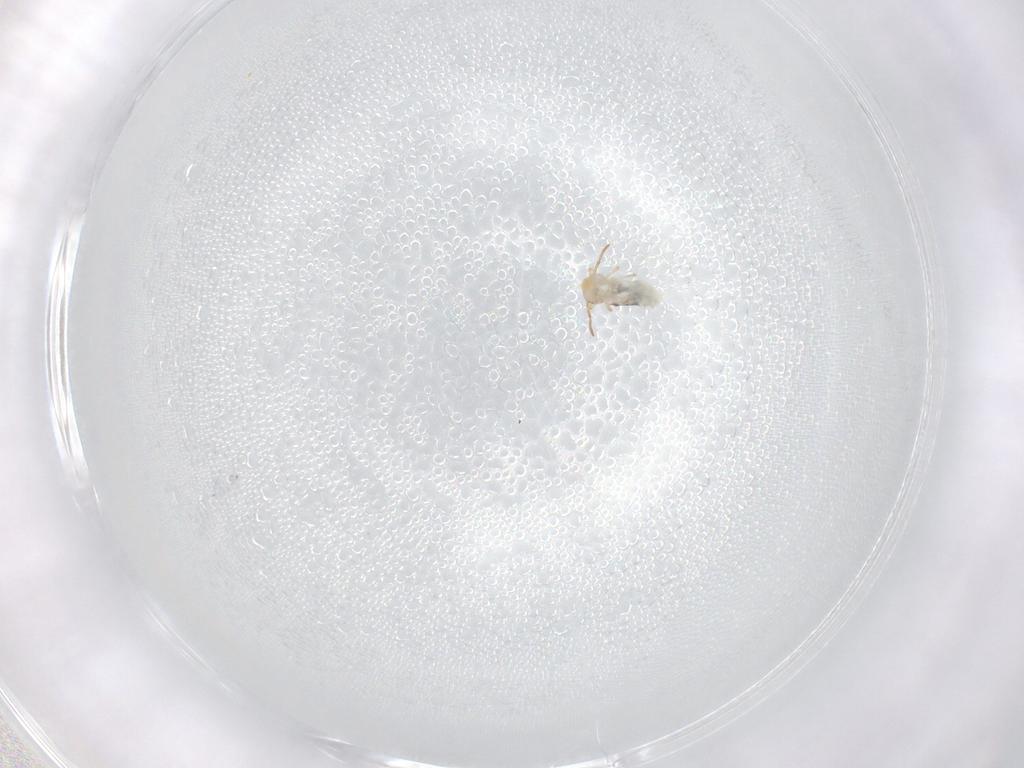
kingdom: Animalia
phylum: Arthropoda
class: Collembola
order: Symphypleona
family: Bourletiellidae
